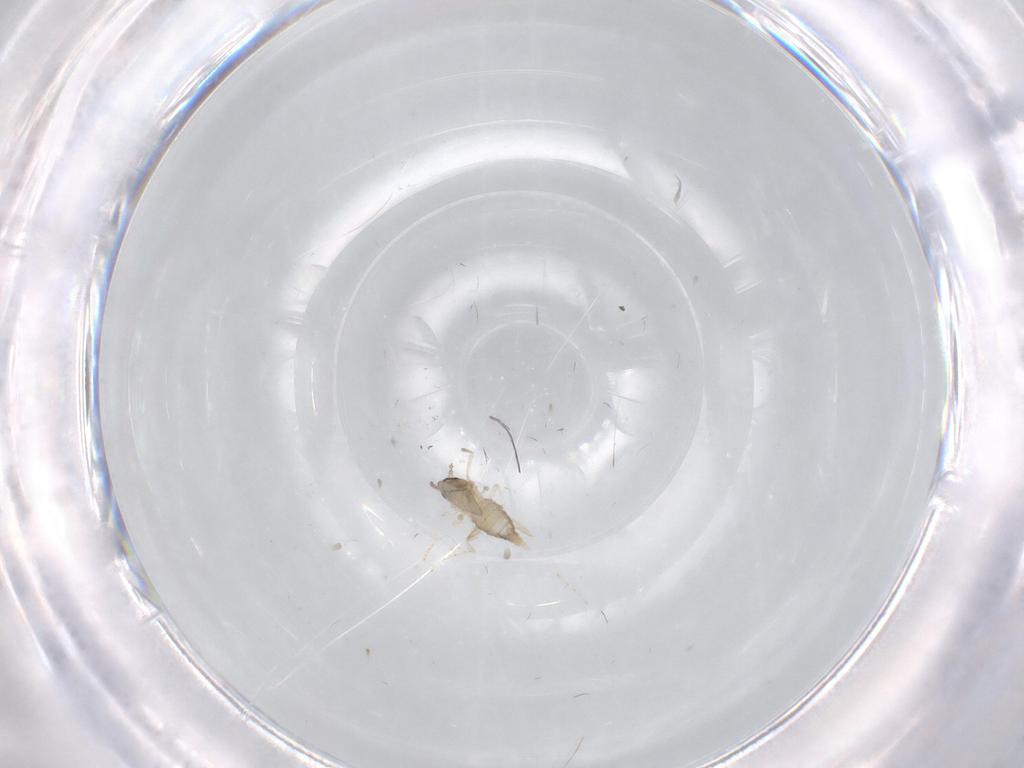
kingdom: Animalia
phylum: Arthropoda
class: Insecta
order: Diptera
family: Cecidomyiidae
